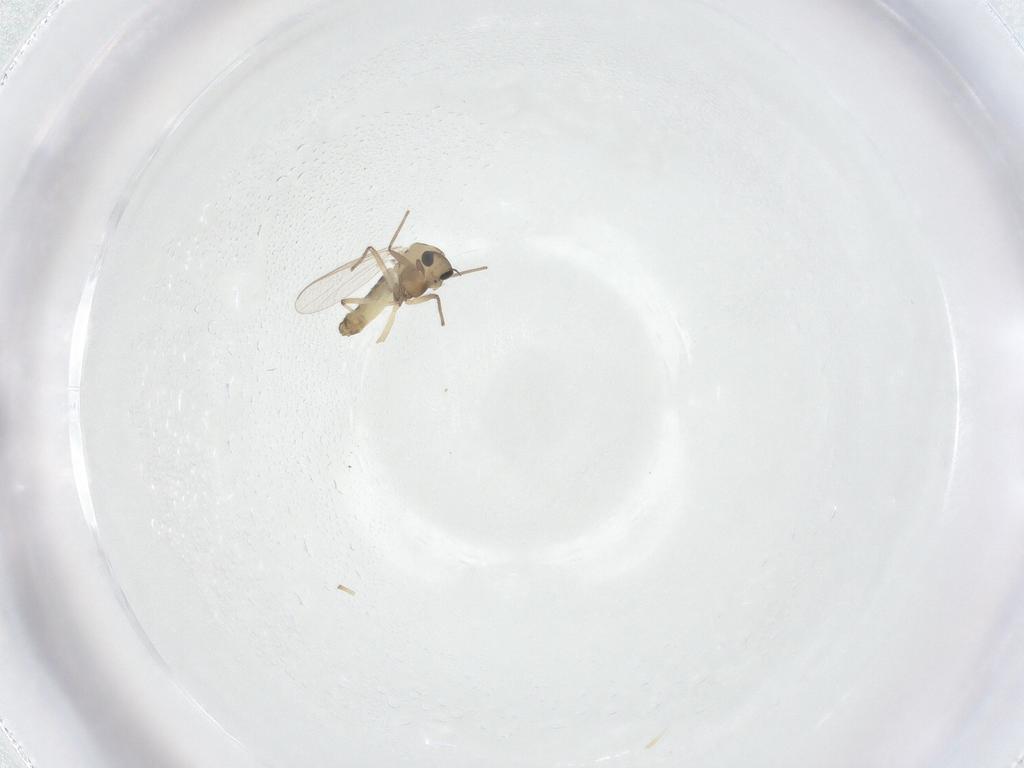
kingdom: Animalia
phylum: Arthropoda
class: Insecta
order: Diptera
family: Chironomidae
